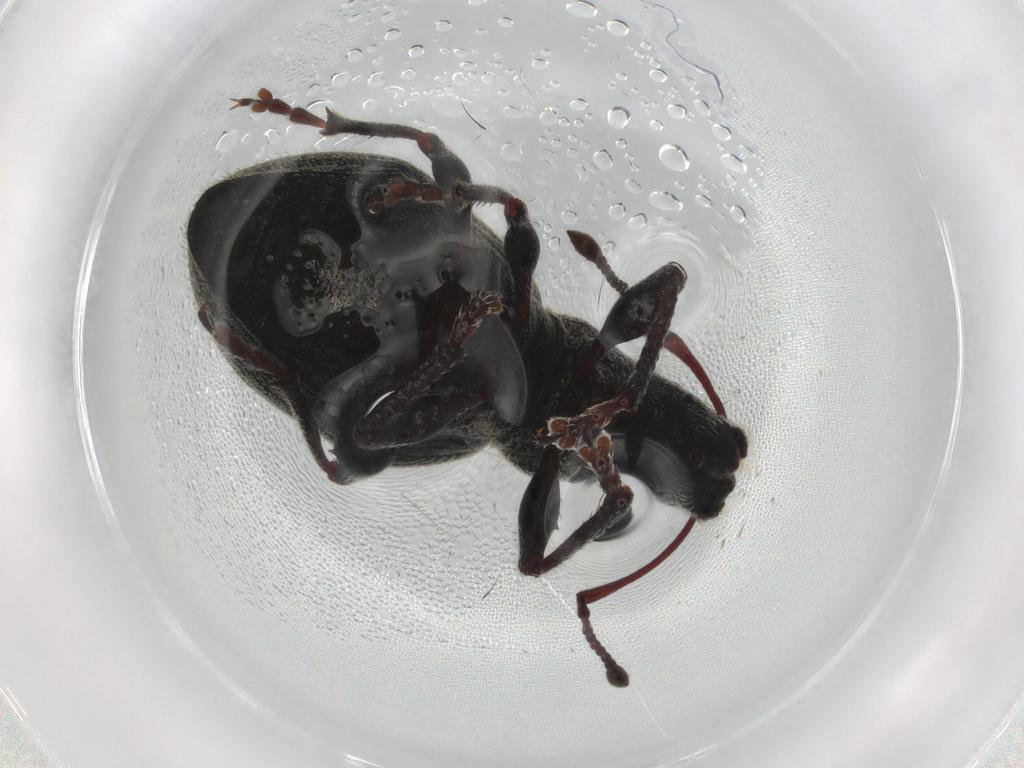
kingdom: Animalia
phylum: Arthropoda
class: Insecta
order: Coleoptera
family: Curculionidae
